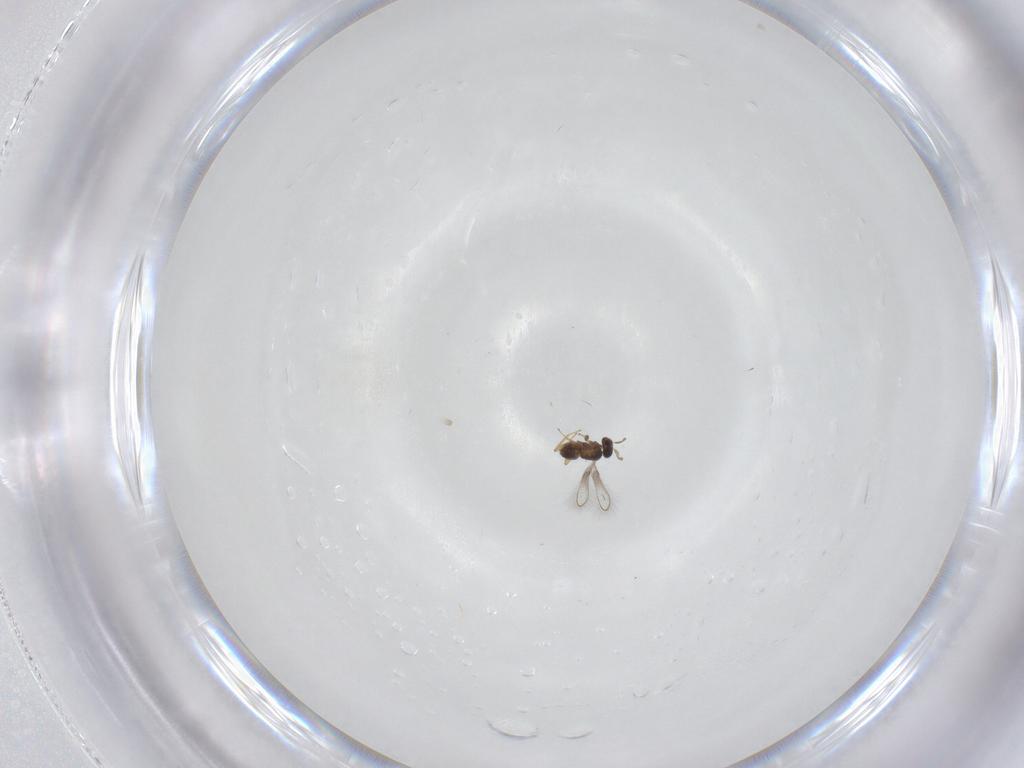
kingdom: Animalia
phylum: Arthropoda
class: Insecta
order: Hymenoptera
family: Mymaridae
